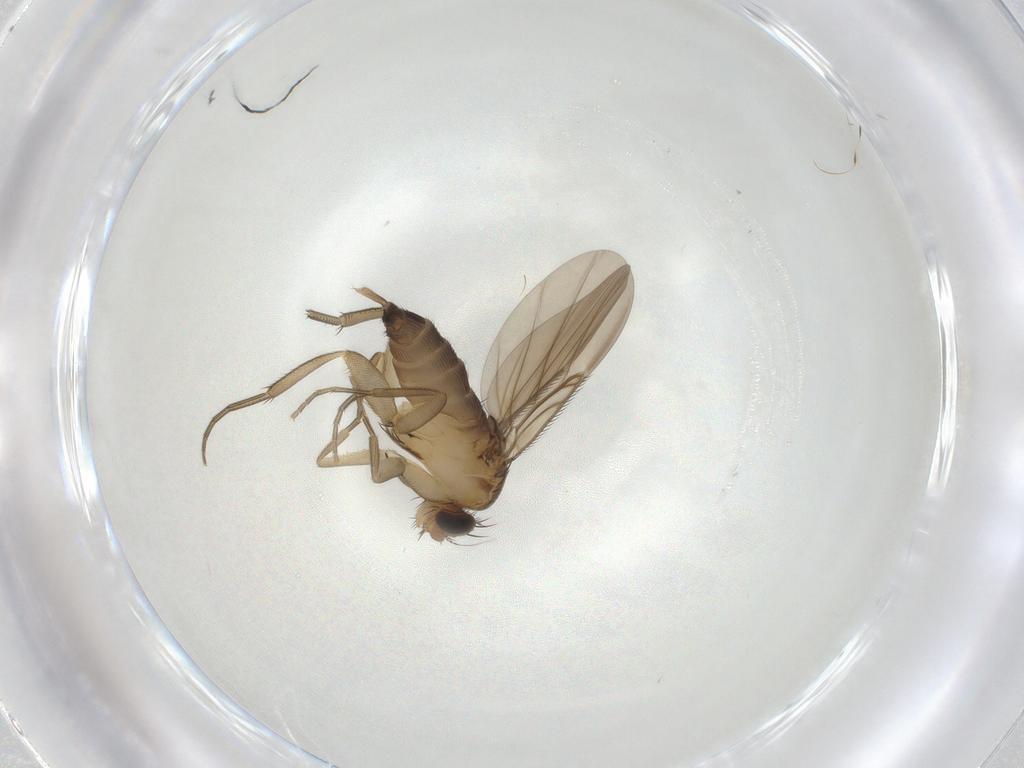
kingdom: Animalia
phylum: Arthropoda
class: Insecta
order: Diptera
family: Phoridae
